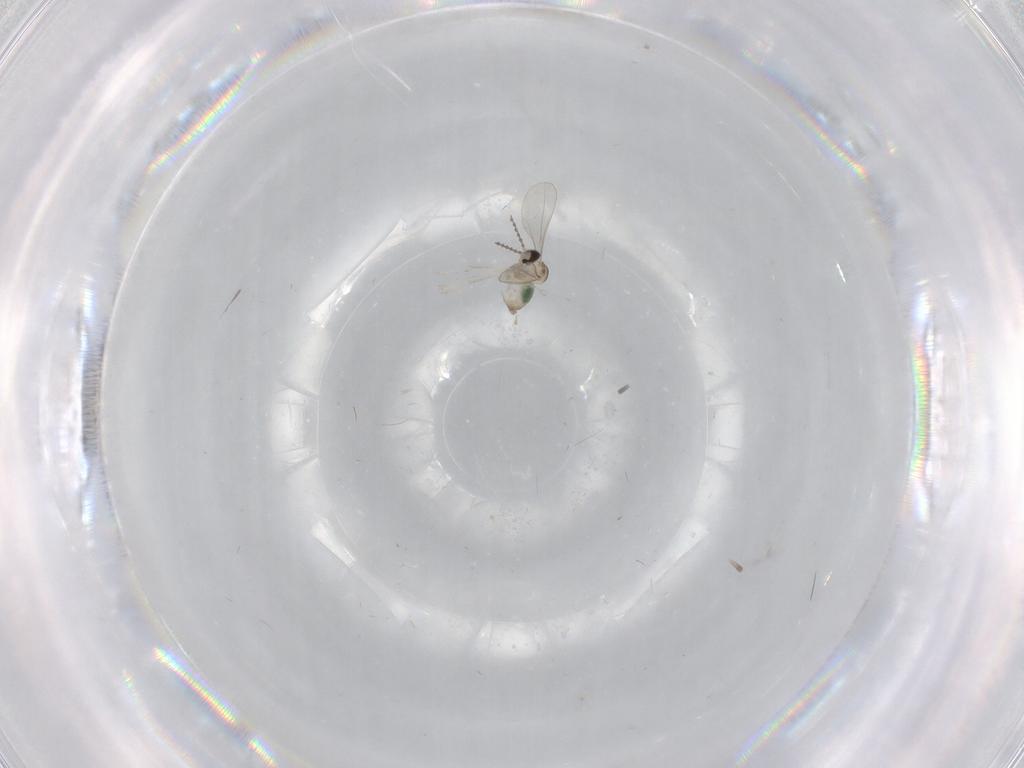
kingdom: Animalia
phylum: Arthropoda
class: Insecta
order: Diptera
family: Cecidomyiidae
